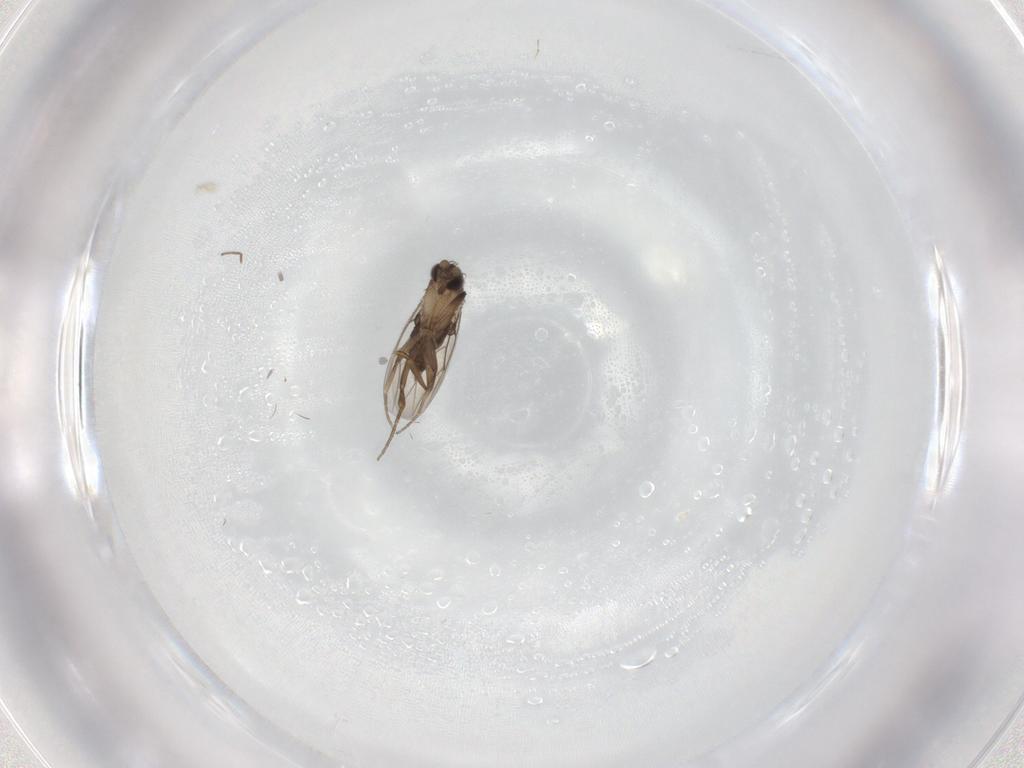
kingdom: Animalia
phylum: Arthropoda
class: Insecta
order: Diptera
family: Chironomidae
